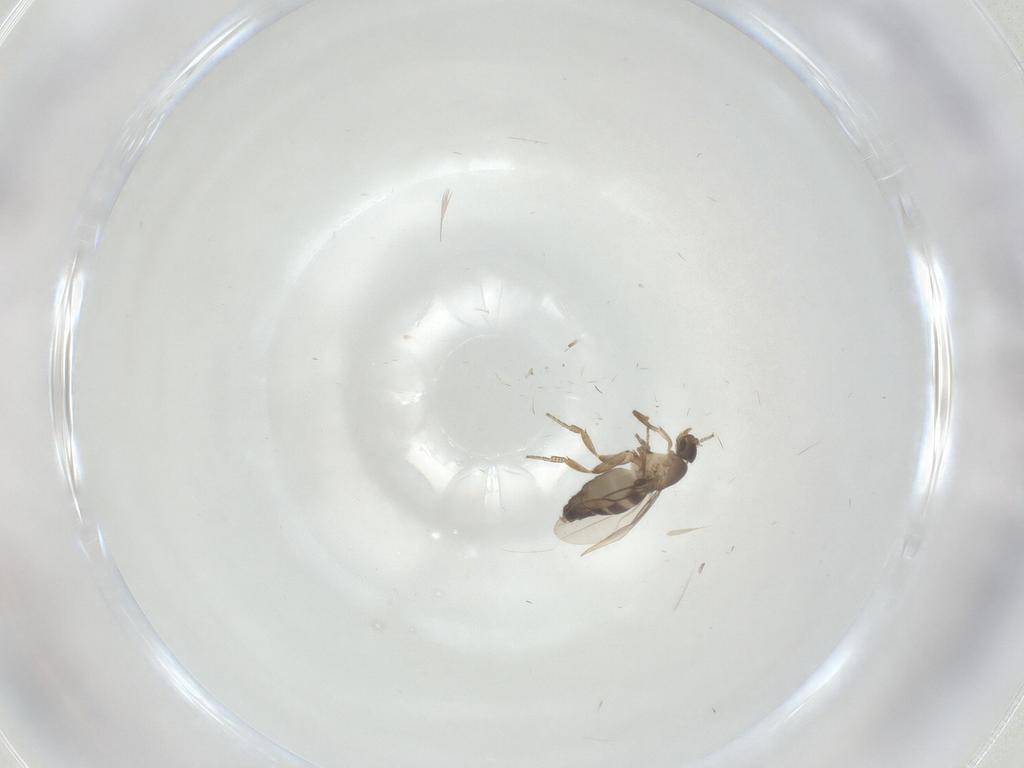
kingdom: Animalia
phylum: Arthropoda
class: Insecta
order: Diptera
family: Phoridae
